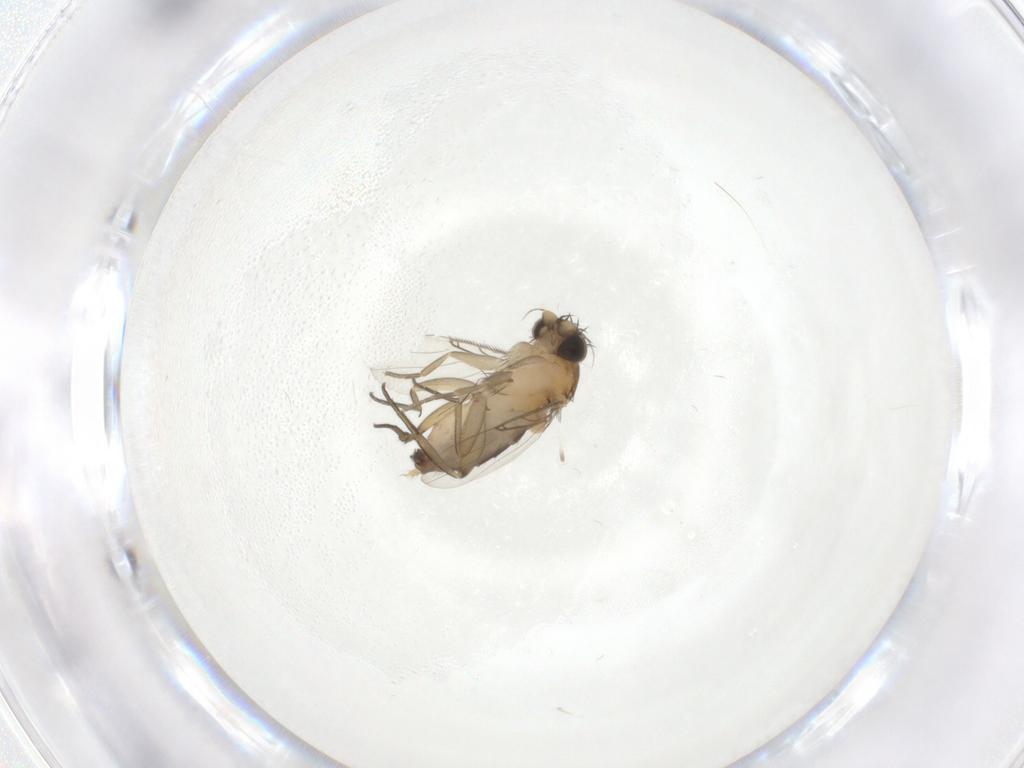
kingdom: Animalia
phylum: Arthropoda
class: Insecta
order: Diptera
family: Phoridae
